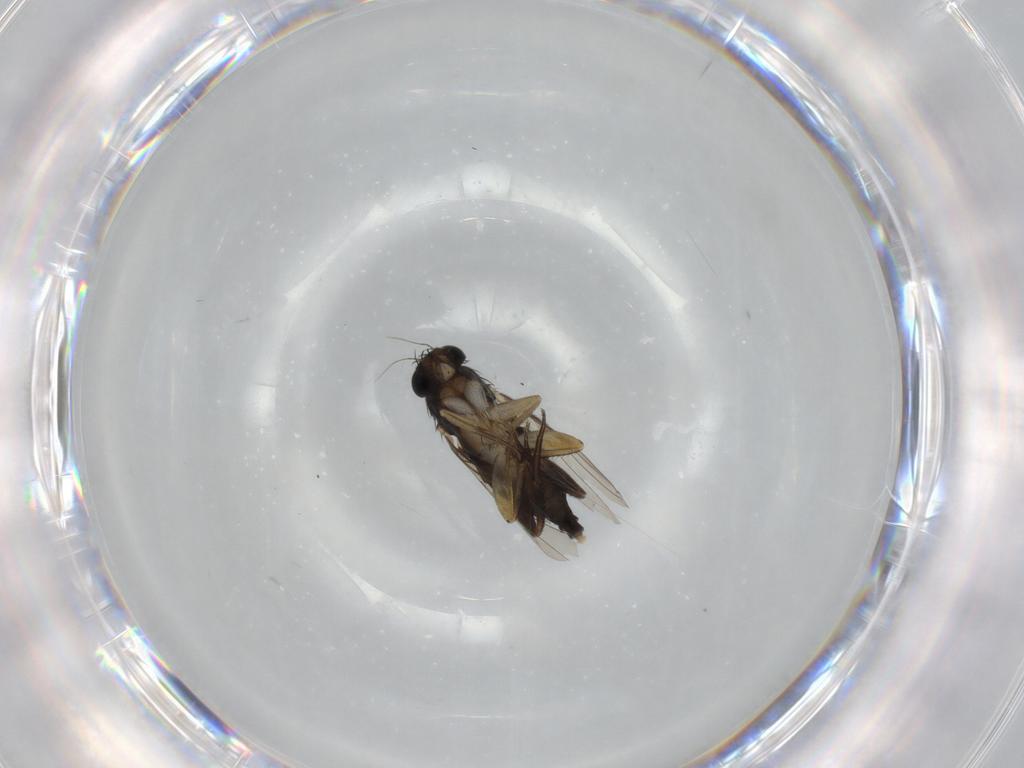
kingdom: Animalia
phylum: Arthropoda
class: Insecta
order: Diptera
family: Phoridae
